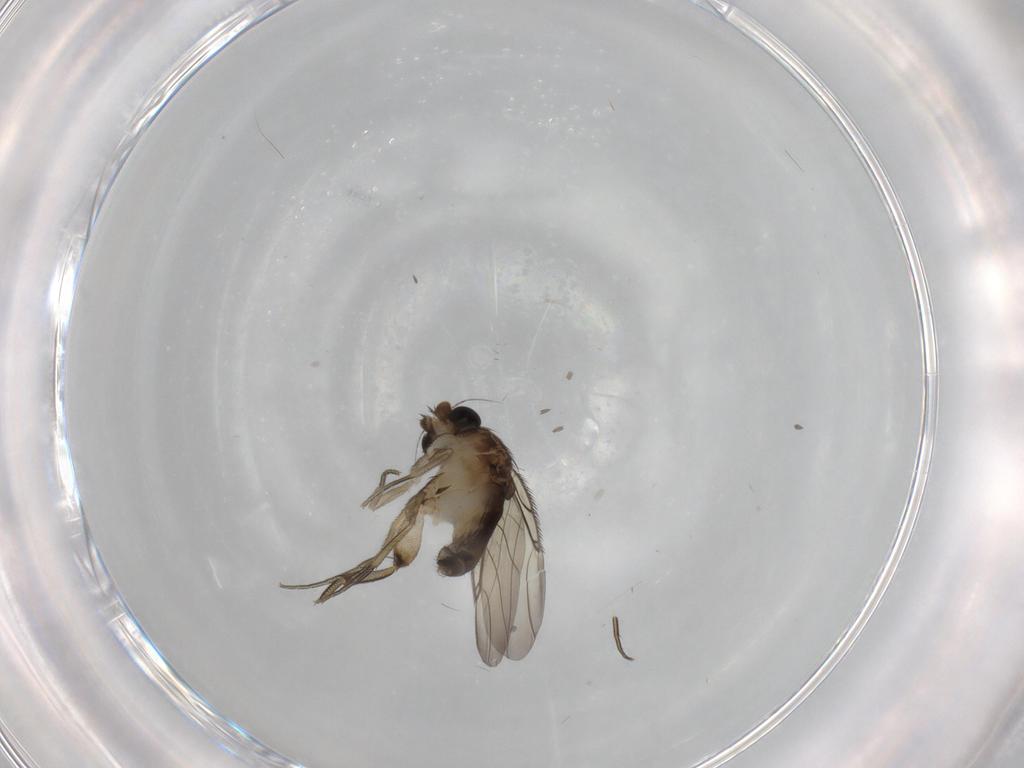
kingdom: Animalia
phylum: Arthropoda
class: Insecta
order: Diptera
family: Phoridae
